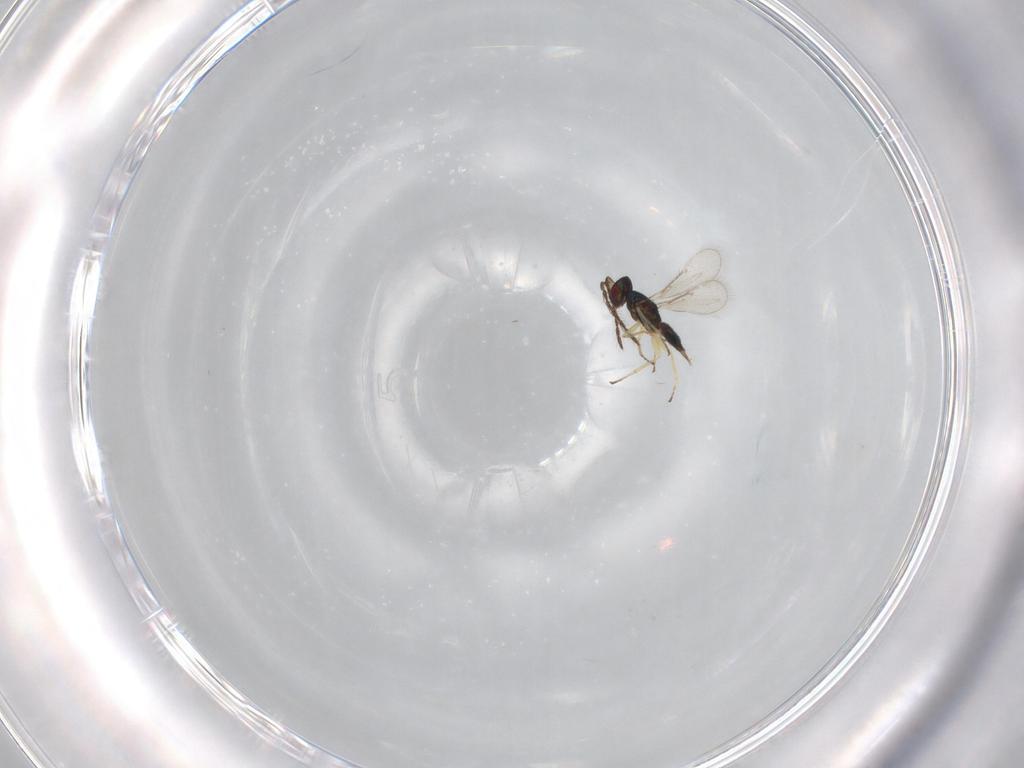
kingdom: Animalia
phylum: Arthropoda
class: Insecta
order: Hymenoptera
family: Eulophidae
